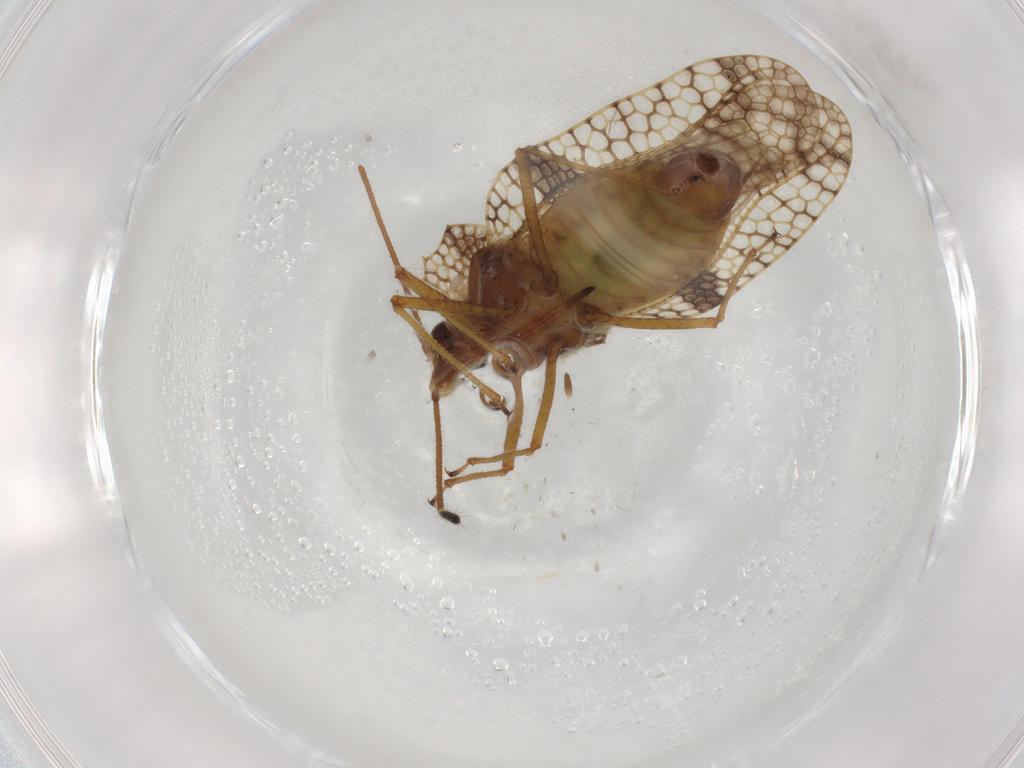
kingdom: Animalia
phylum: Arthropoda
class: Insecta
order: Hemiptera
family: Tingidae
